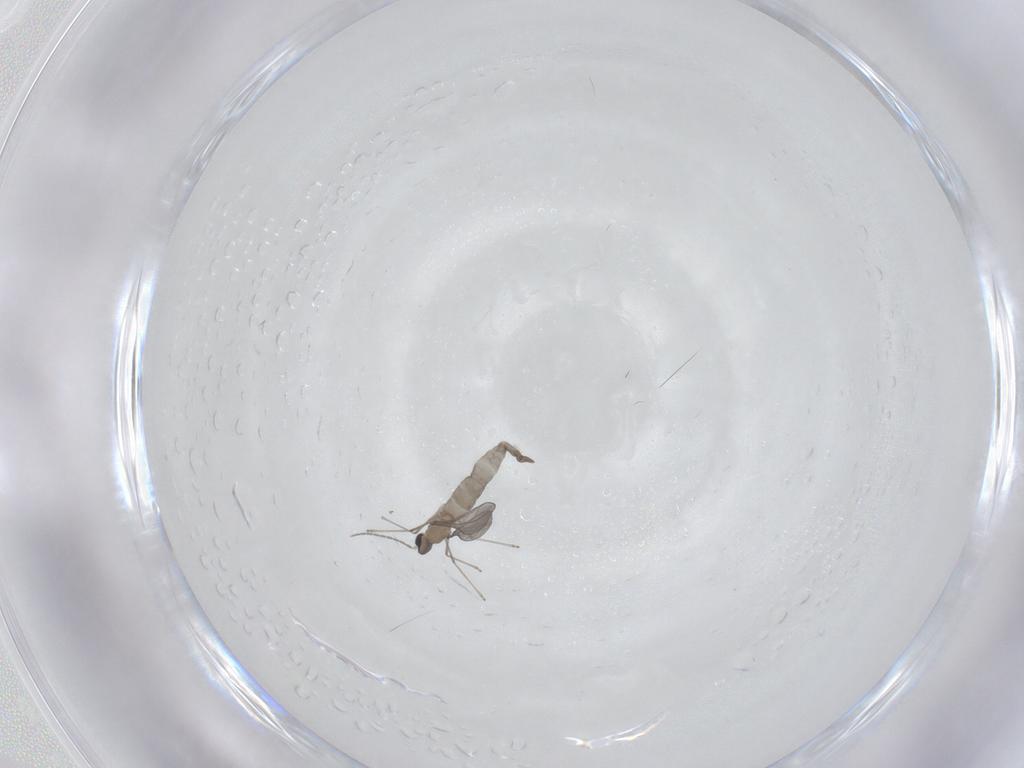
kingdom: Animalia
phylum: Arthropoda
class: Insecta
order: Diptera
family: Cecidomyiidae
